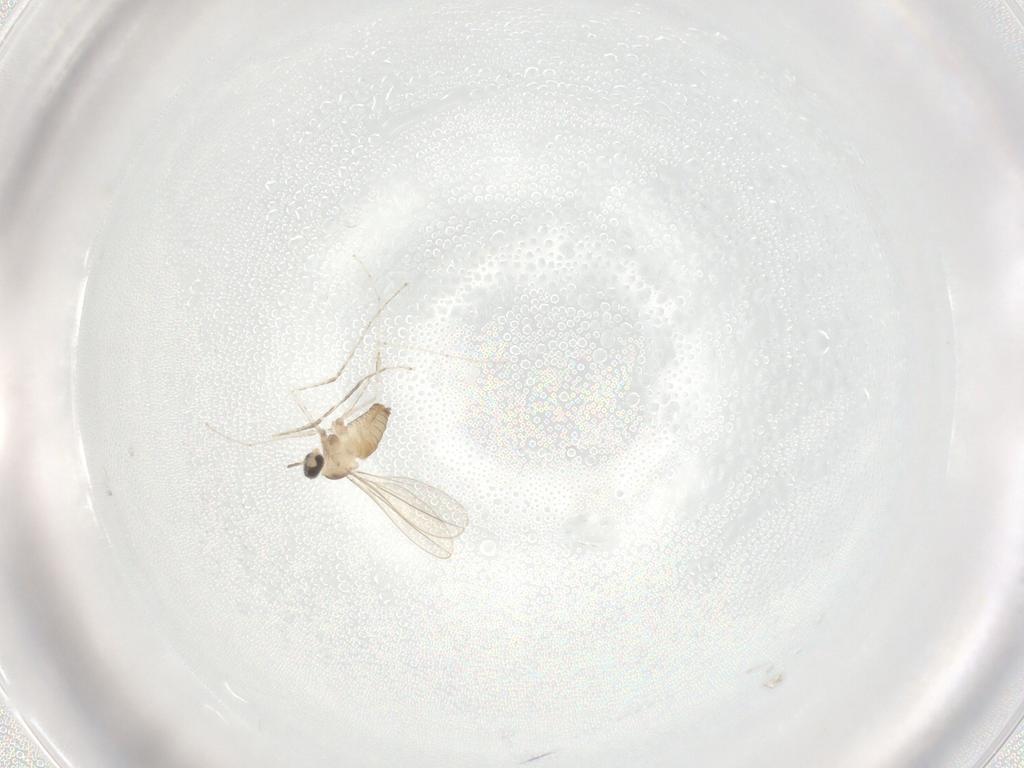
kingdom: Animalia
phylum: Arthropoda
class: Insecta
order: Diptera
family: Cecidomyiidae
